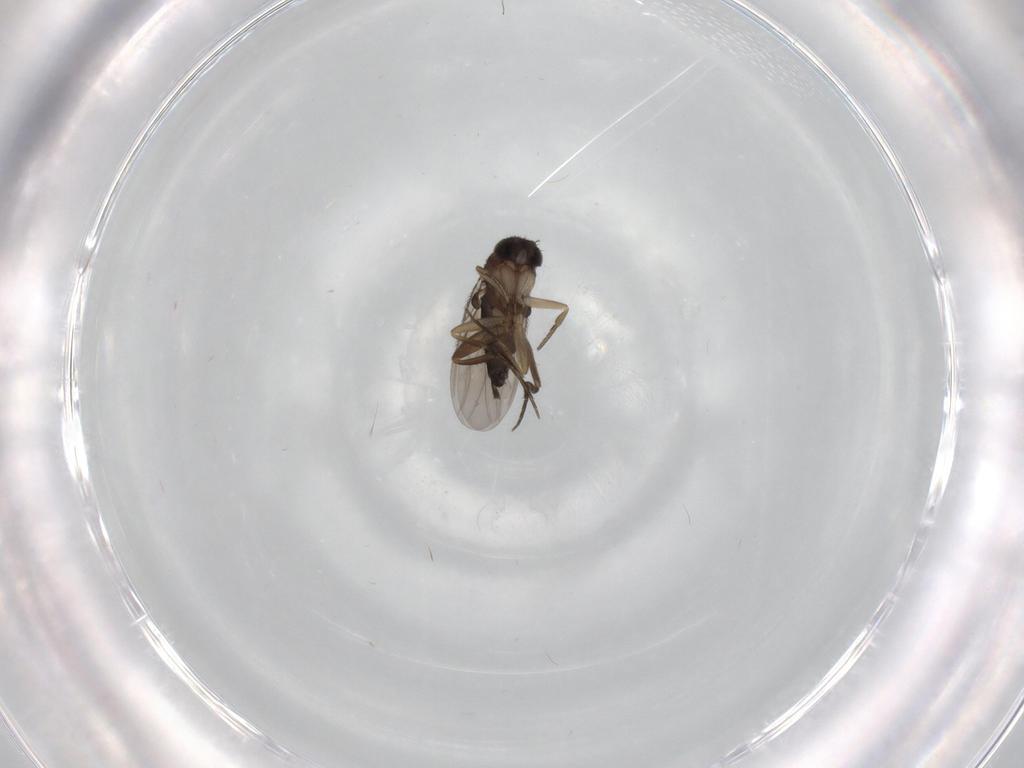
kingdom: Animalia
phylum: Arthropoda
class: Insecta
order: Diptera
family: Phoridae
